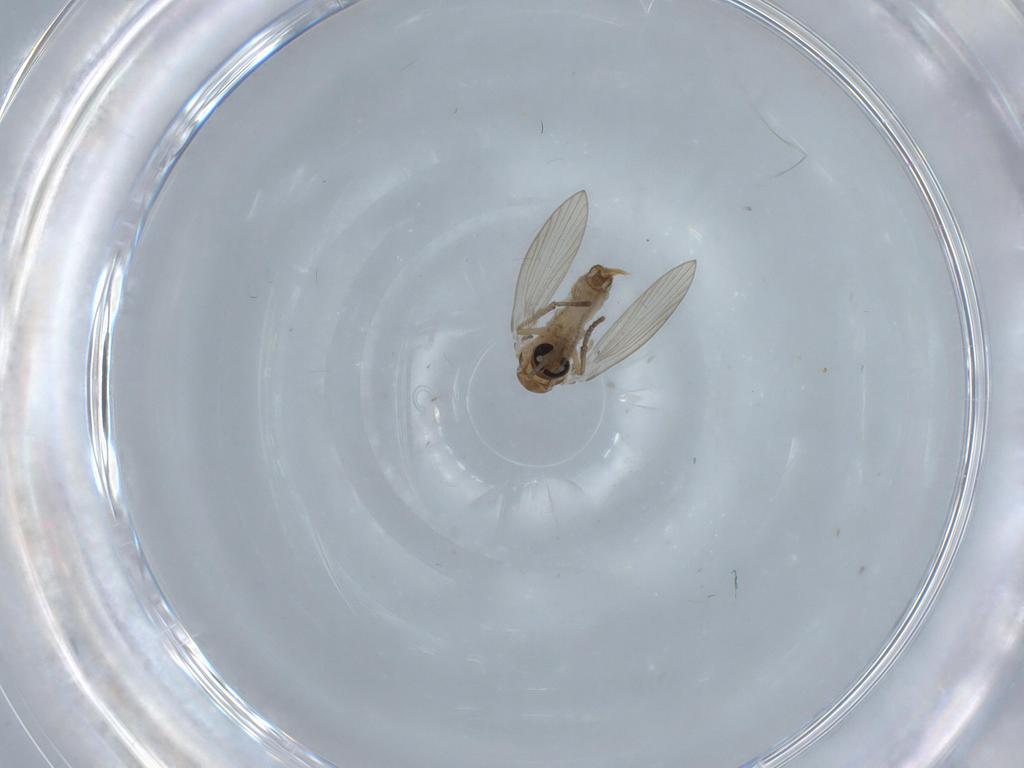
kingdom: Animalia
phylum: Arthropoda
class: Insecta
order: Diptera
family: Psychodidae
